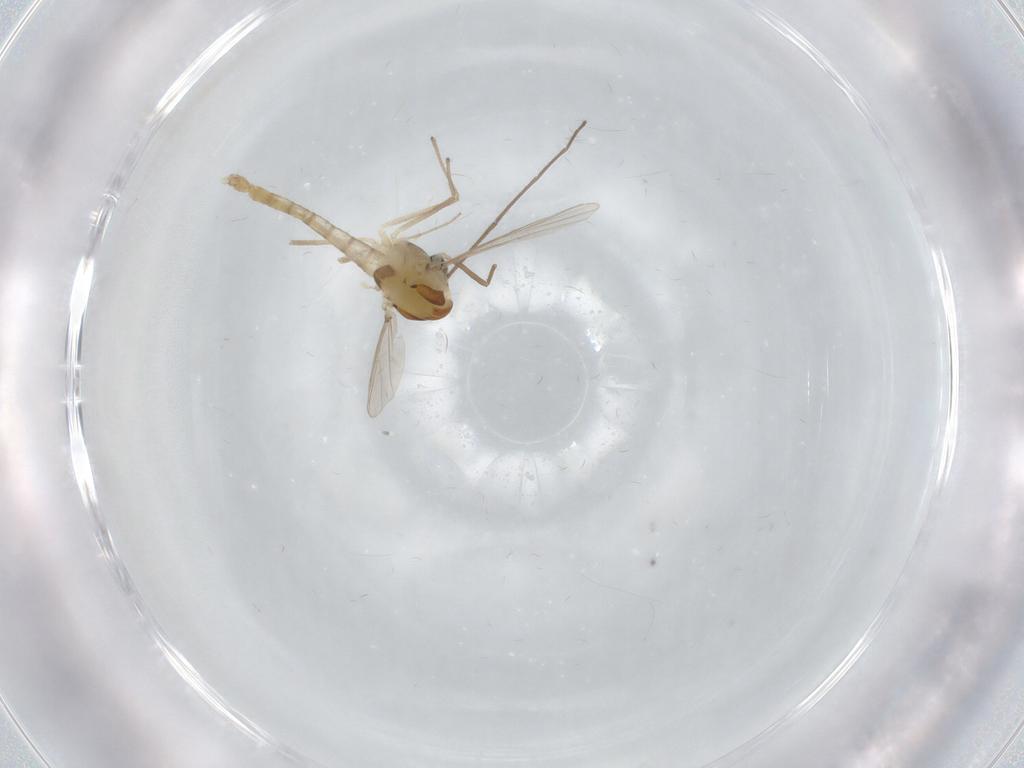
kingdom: Animalia
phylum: Arthropoda
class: Insecta
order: Diptera
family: Chironomidae
